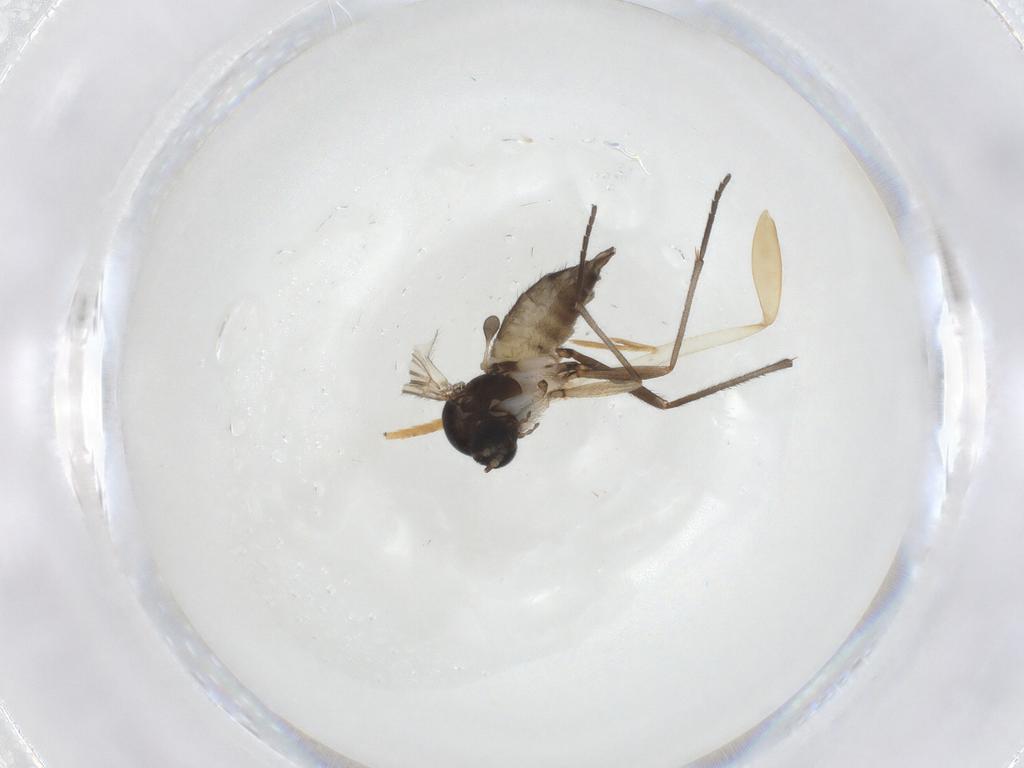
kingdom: Animalia
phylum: Arthropoda
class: Insecta
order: Diptera
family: Sciaridae
